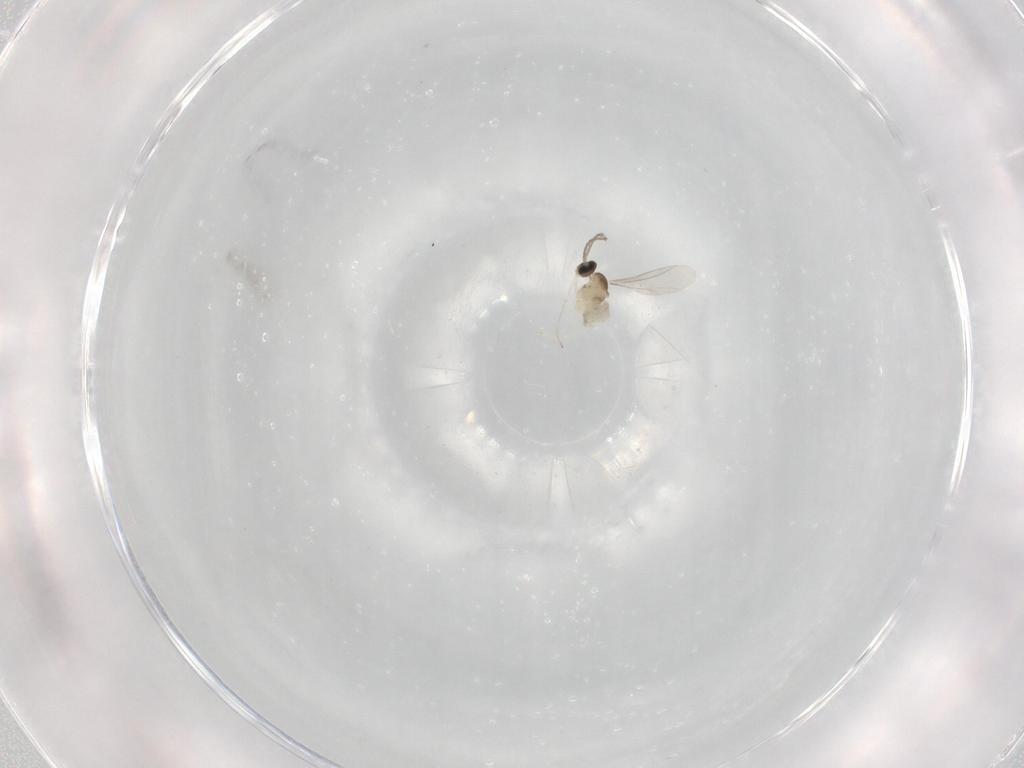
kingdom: Animalia
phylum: Arthropoda
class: Insecta
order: Diptera
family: Cecidomyiidae
